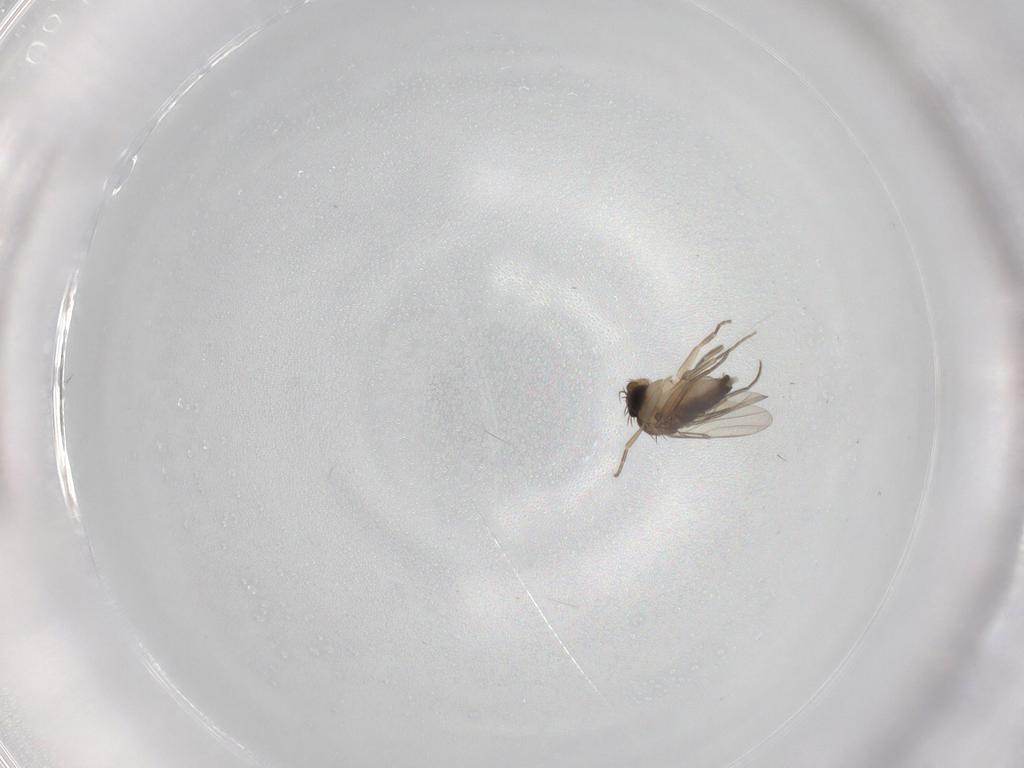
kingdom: Animalia
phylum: Arthropoda
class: Insecta
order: Diptera
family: Phoridae
